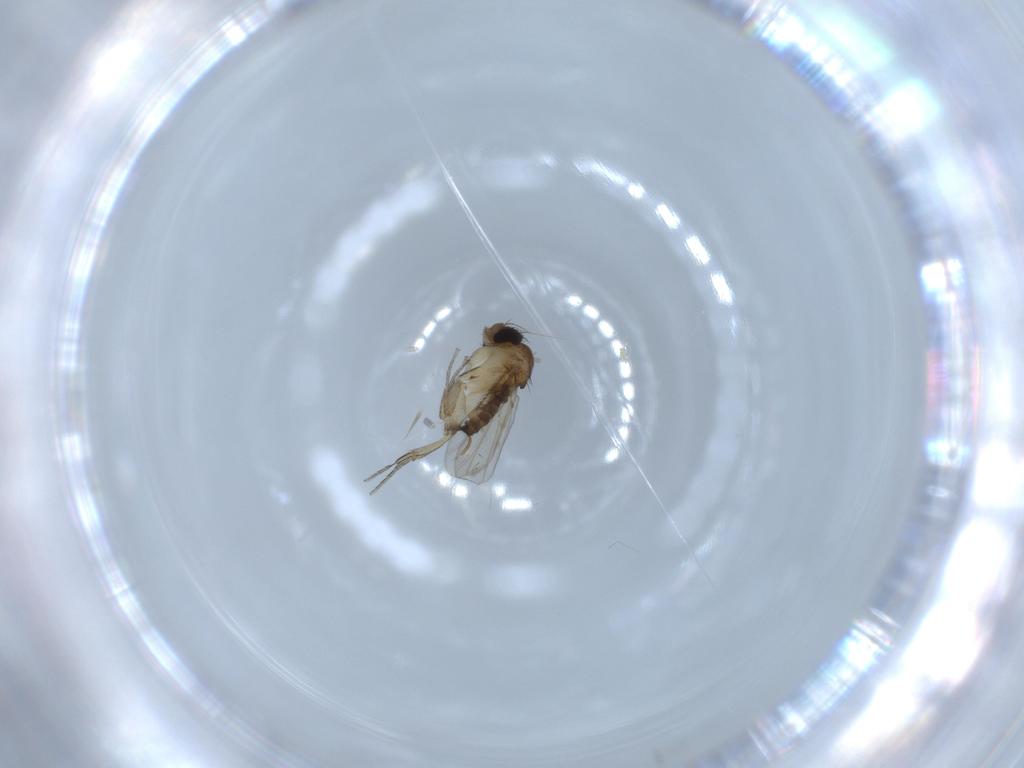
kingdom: Animalia
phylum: Arthropoda
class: Insecta
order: Diptera
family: Phoridae
